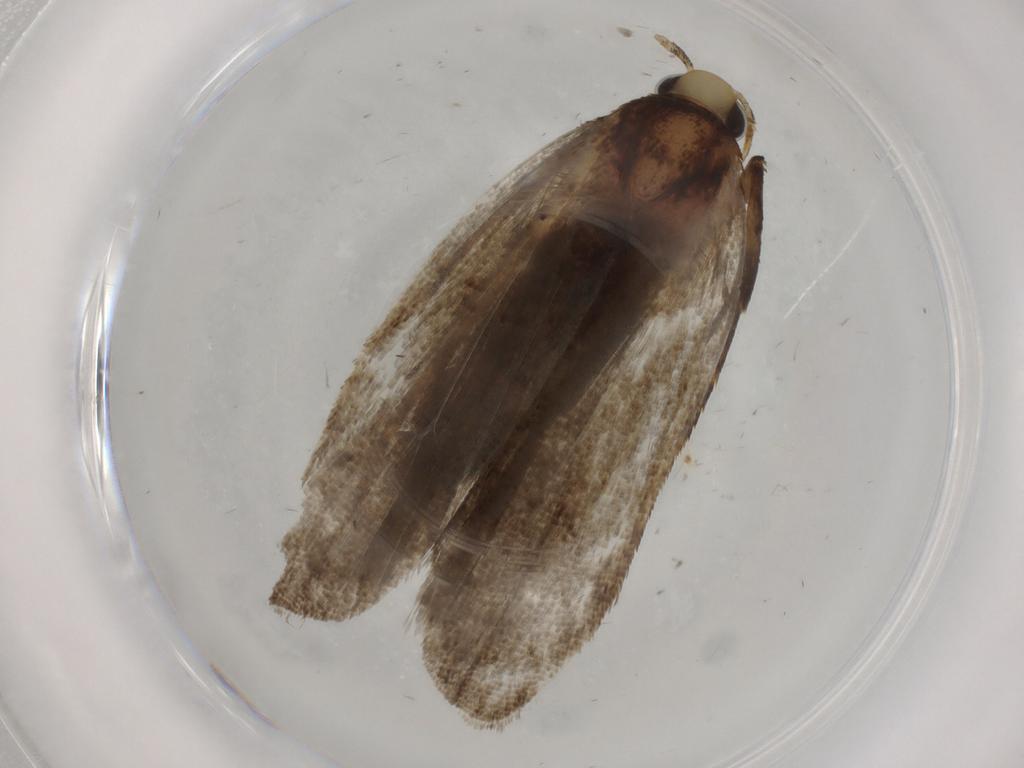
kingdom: Animalia
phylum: Arthropoda
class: Insecta
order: Lepidoptera
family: Autostichidae
